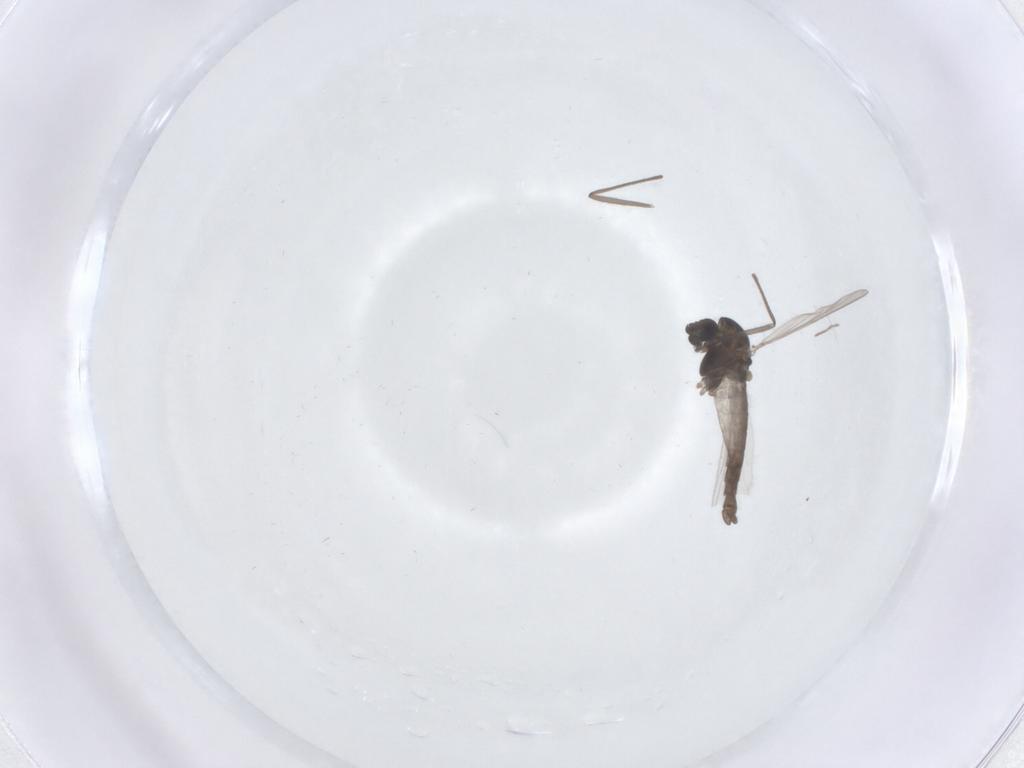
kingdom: Animalia
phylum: Arthropoda
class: Insecta
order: Diptera
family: Chironomidae
